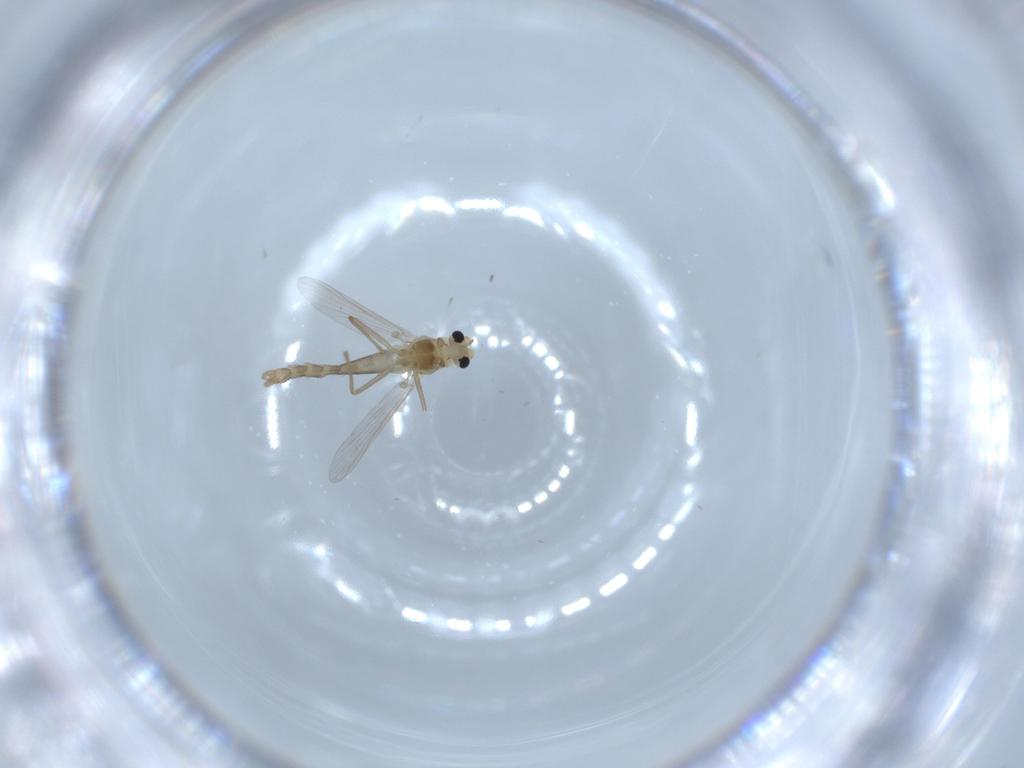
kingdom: Animalia
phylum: Arthropoda
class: Insecta
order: Diptera
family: Chironomidae
